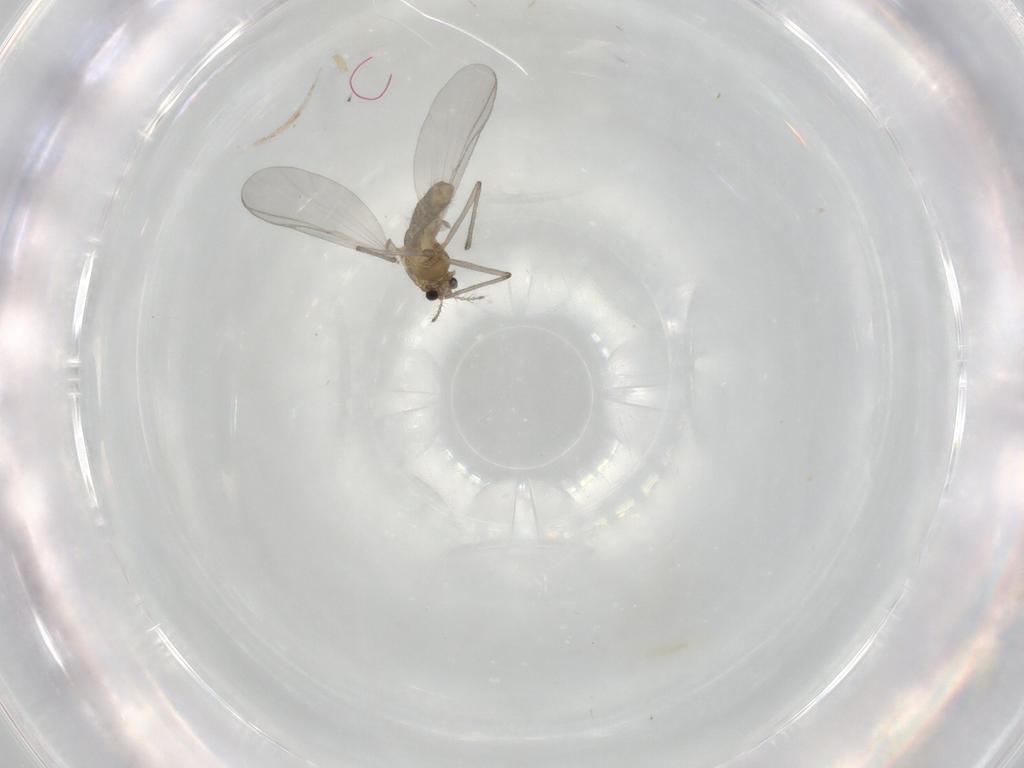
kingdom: Animalia
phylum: Arthropoda
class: Insecta
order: Diptera
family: Chironomidae
